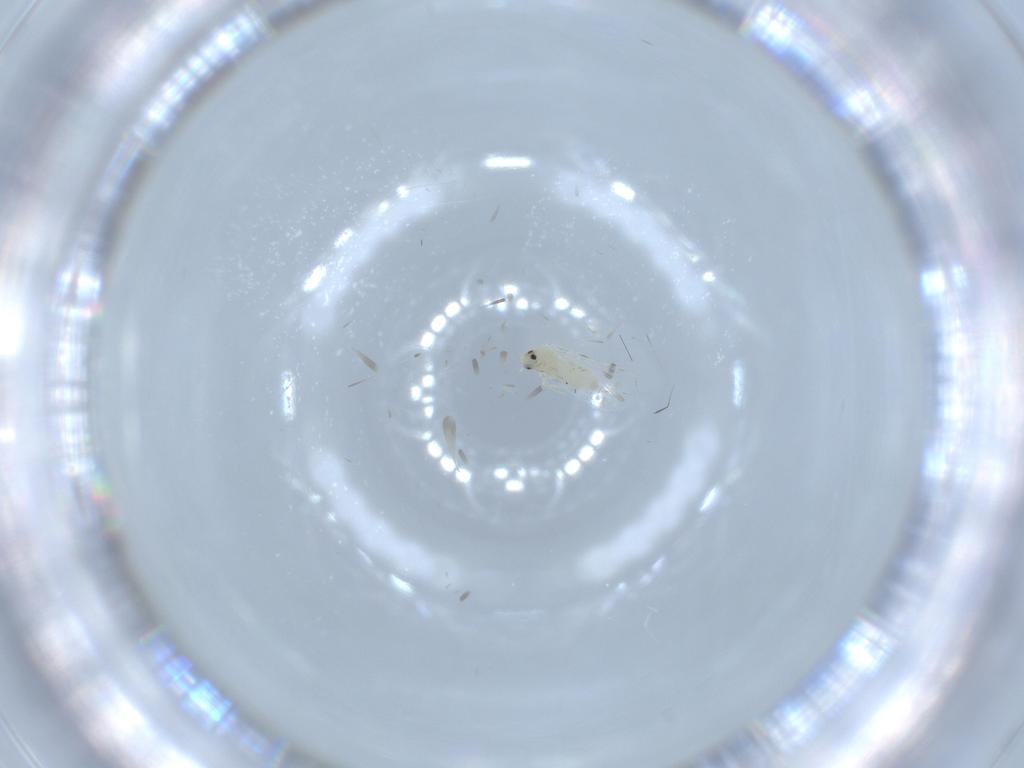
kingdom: Animalia
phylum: Arthropoda
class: Insecta
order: Hemiptera
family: Aleyrodidae
